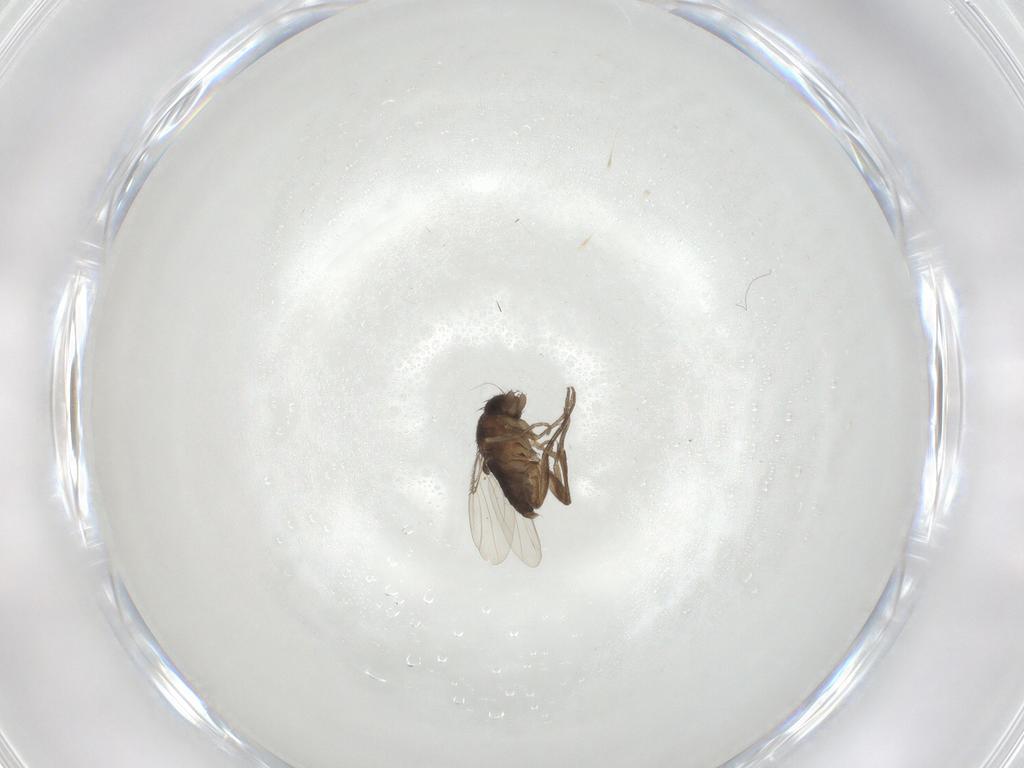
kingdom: Animalia
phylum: Arthropoda
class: Insecta
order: Diptera
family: Phoridae
